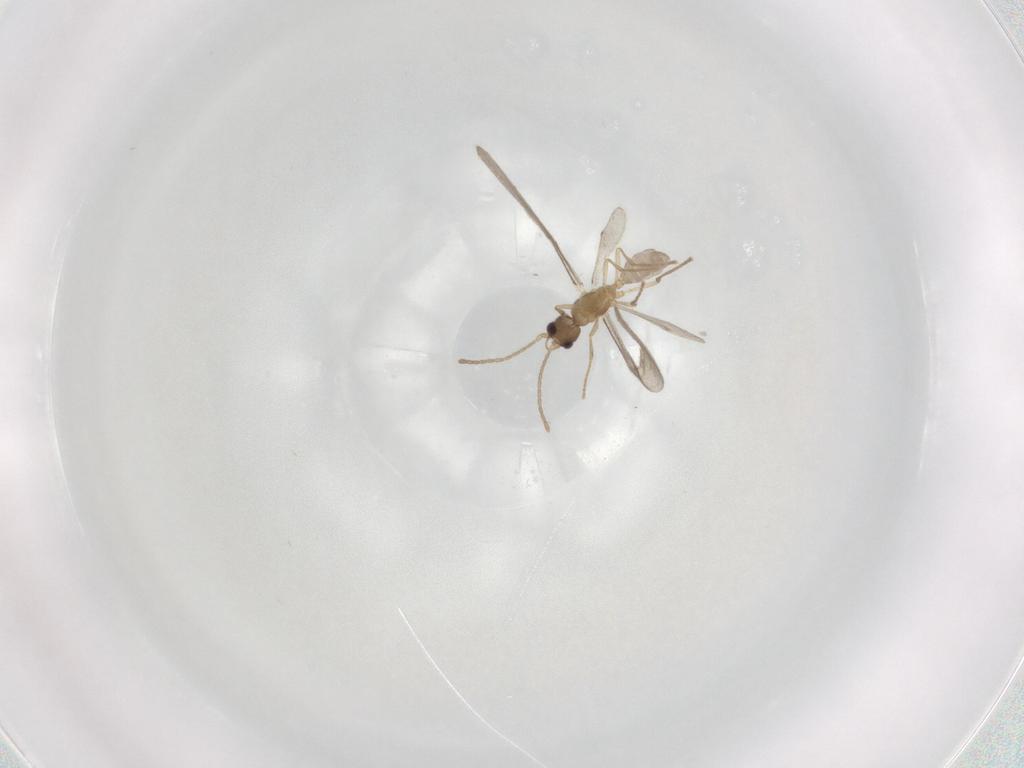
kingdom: Animalia
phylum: Arthropoda
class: Insecta
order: Hymenoptera
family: Formicidae
